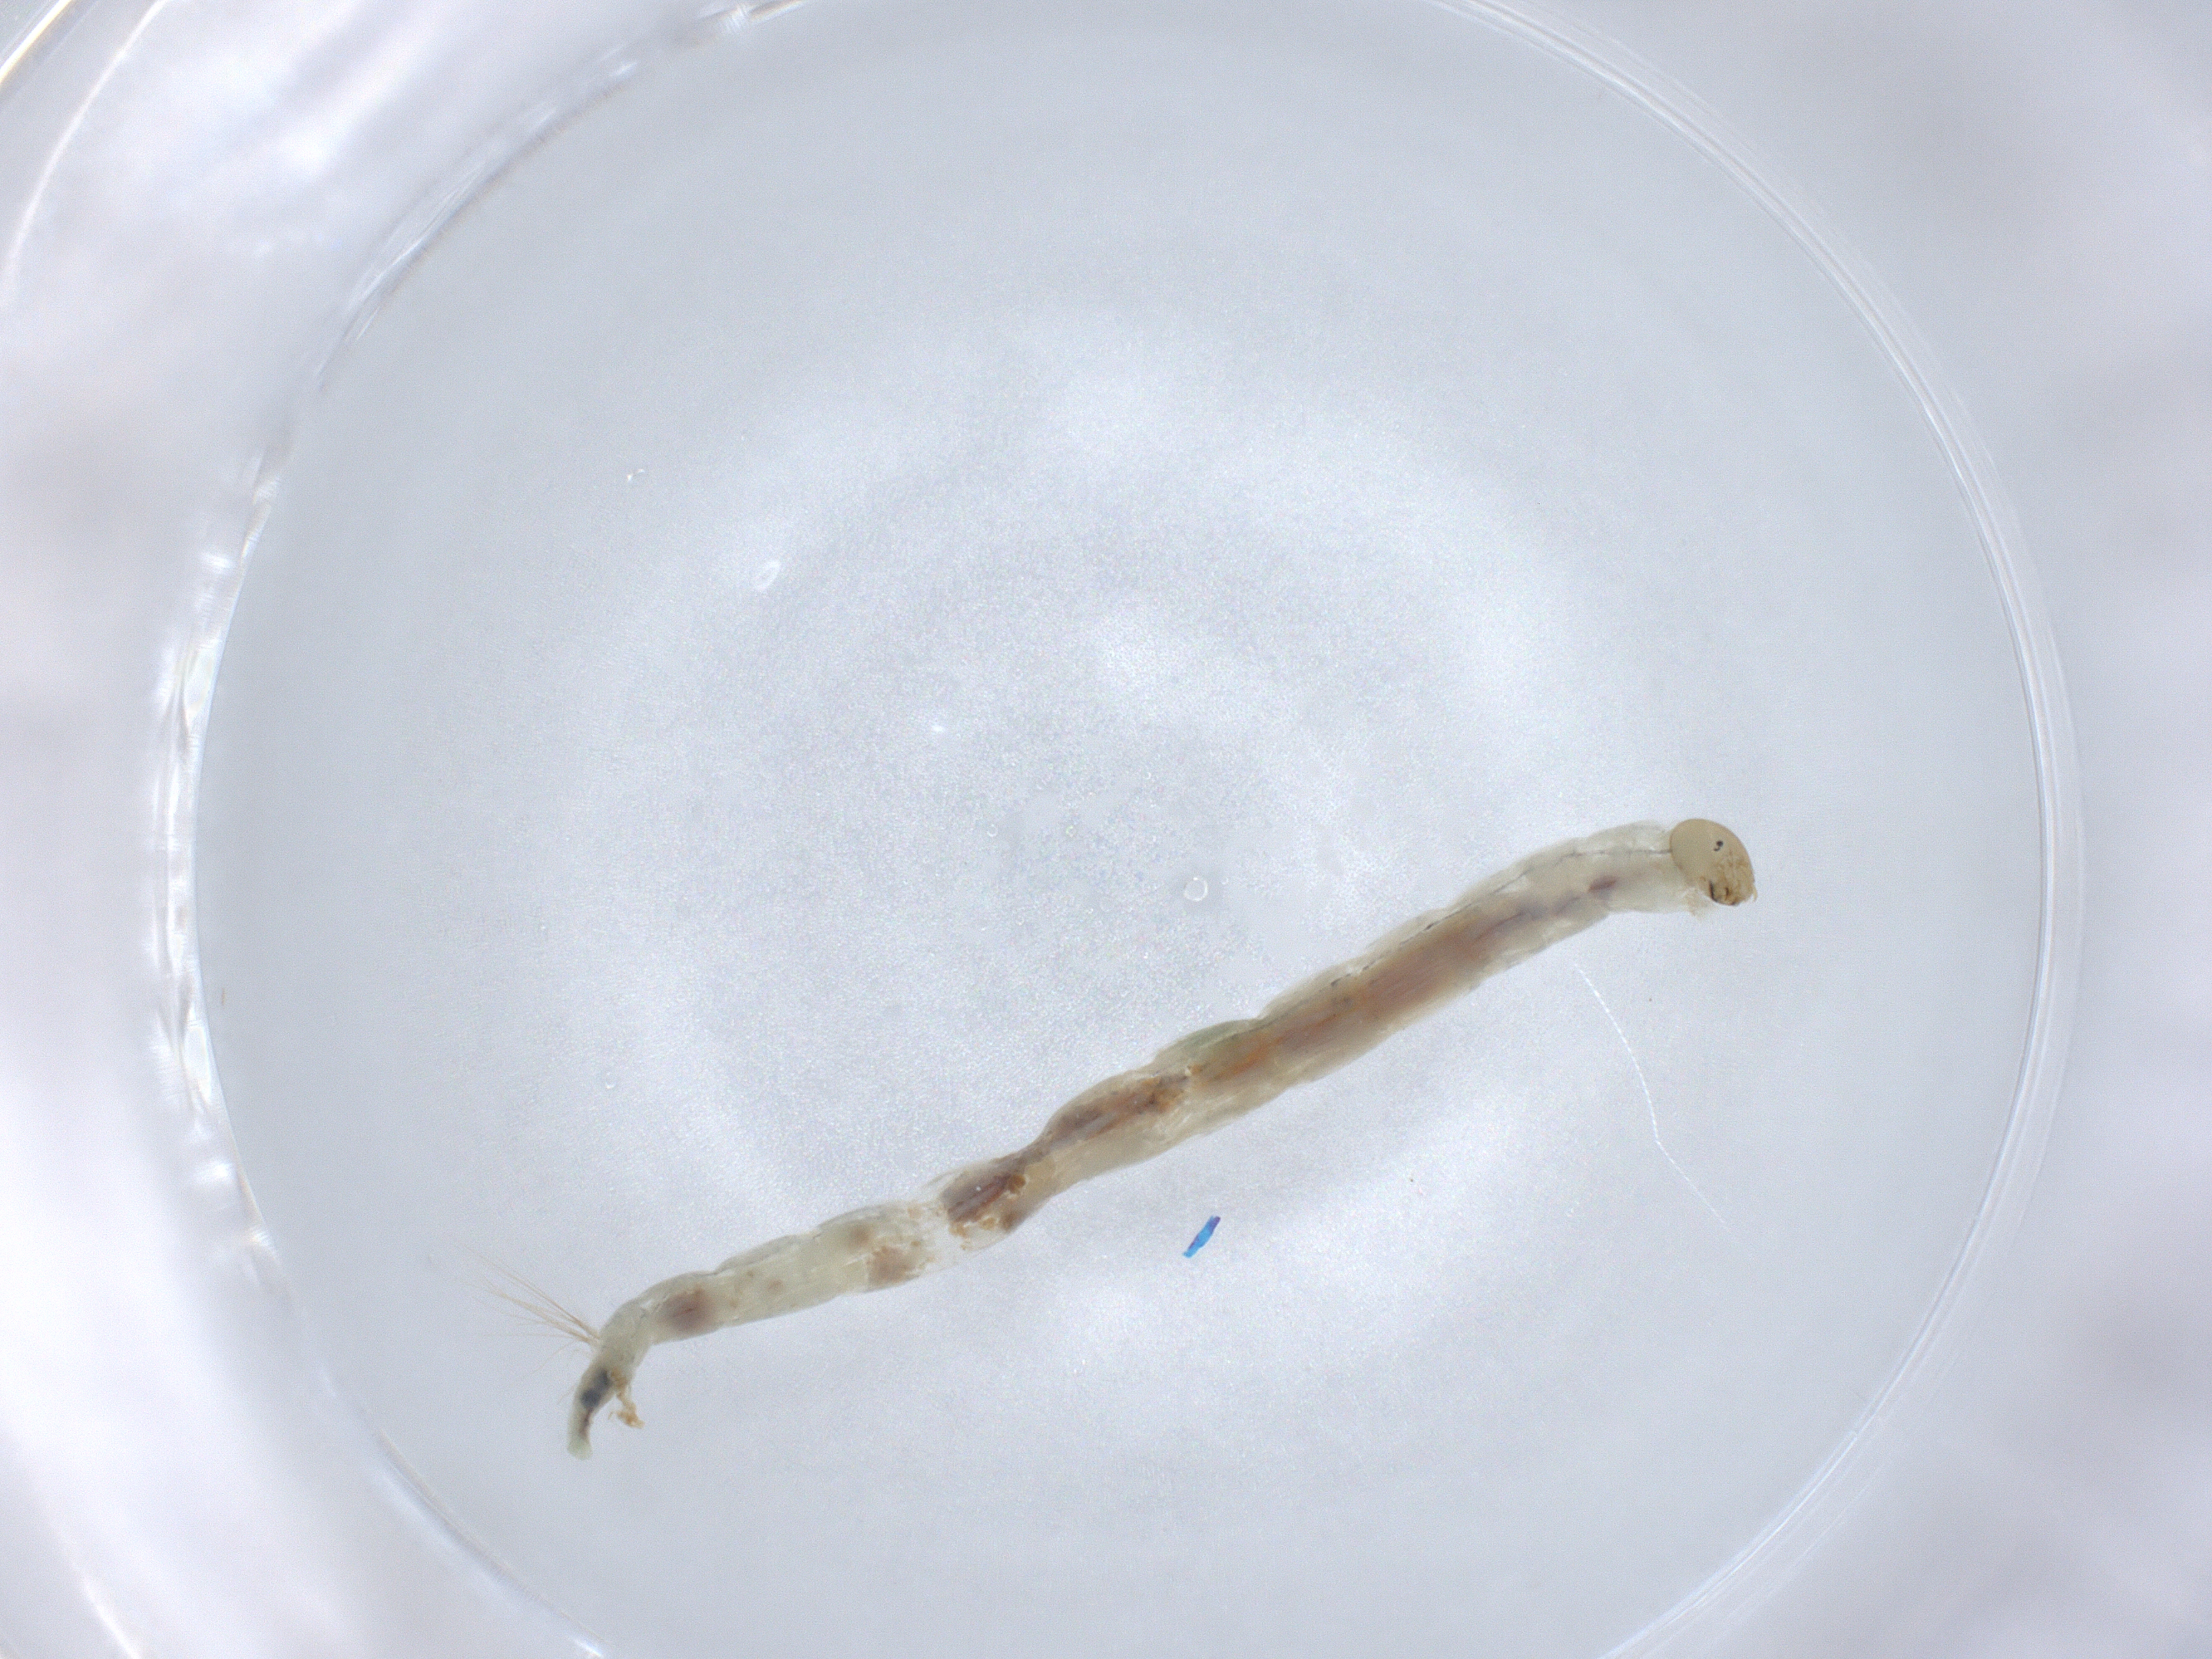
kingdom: Animalia
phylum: Arthropoda
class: Insecta
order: Diptera
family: Chironomidae
